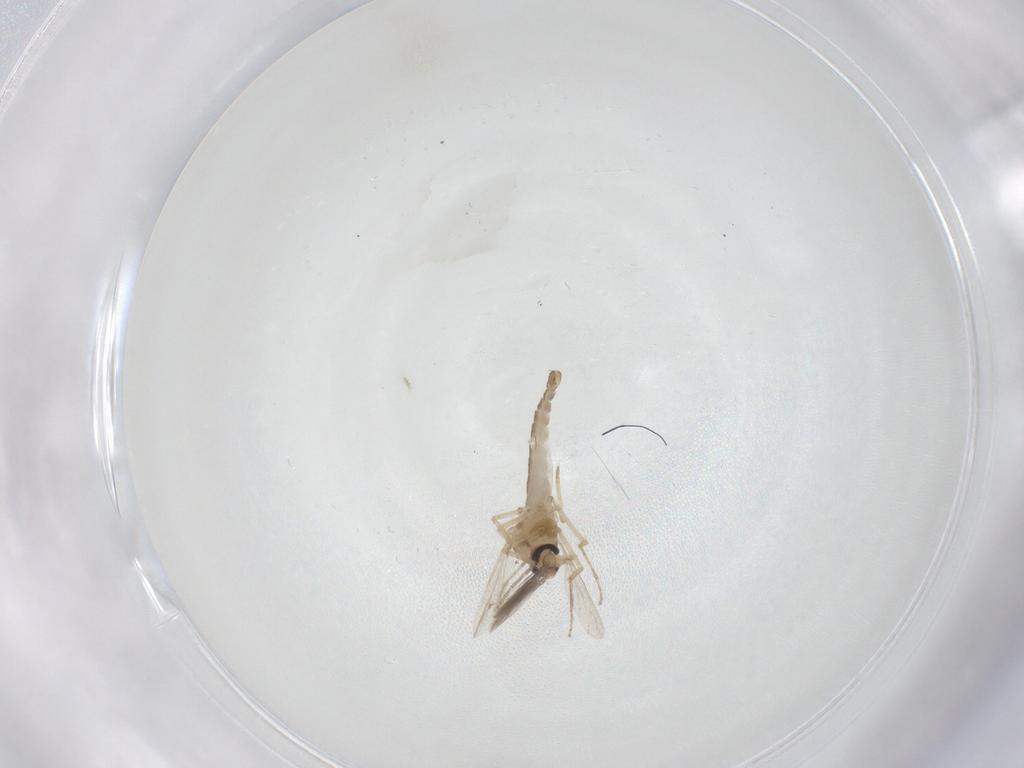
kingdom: Animalia
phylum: Arthropoda
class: Insecta
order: Diptera
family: Ceratopogonidae
